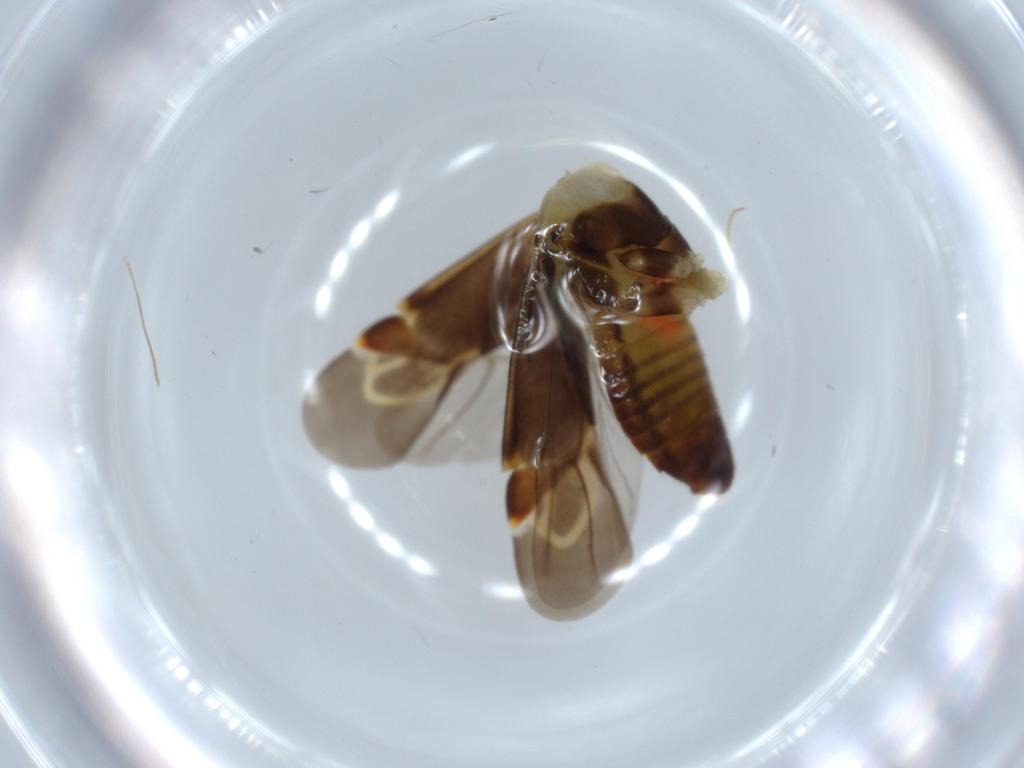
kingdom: Animalia
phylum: Arthropoda
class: Insecta
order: Hemiptera
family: Miridae
